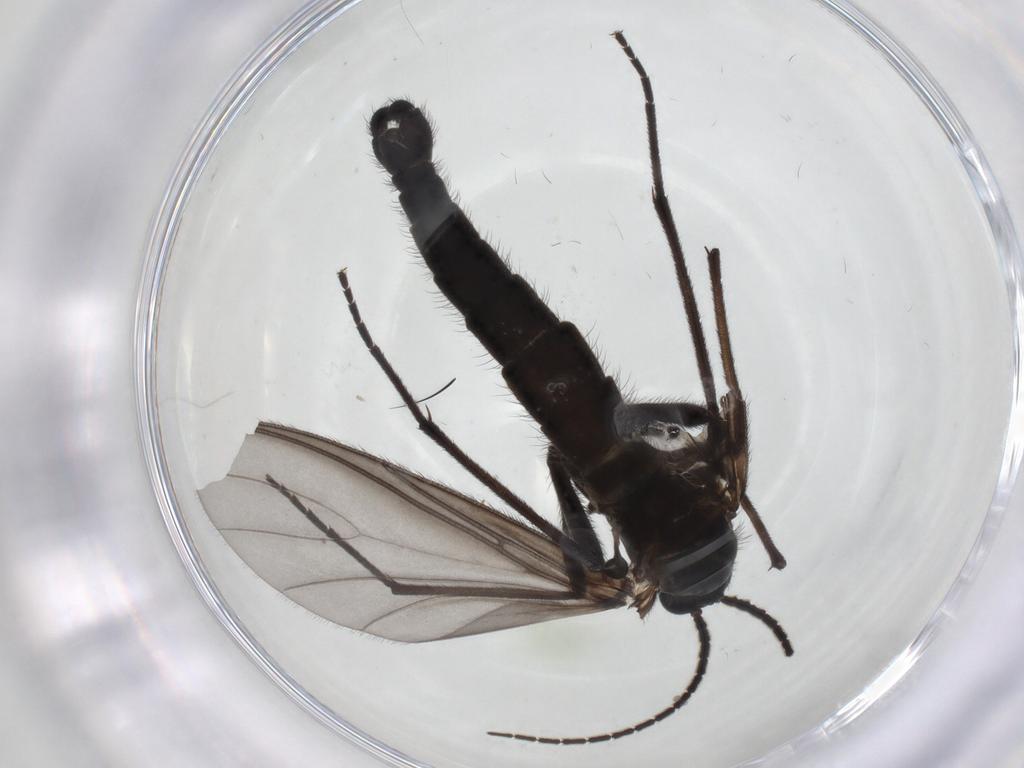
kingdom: Animalia
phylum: Arthropoda
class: Insecta
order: Diptera
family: Sciaridae
